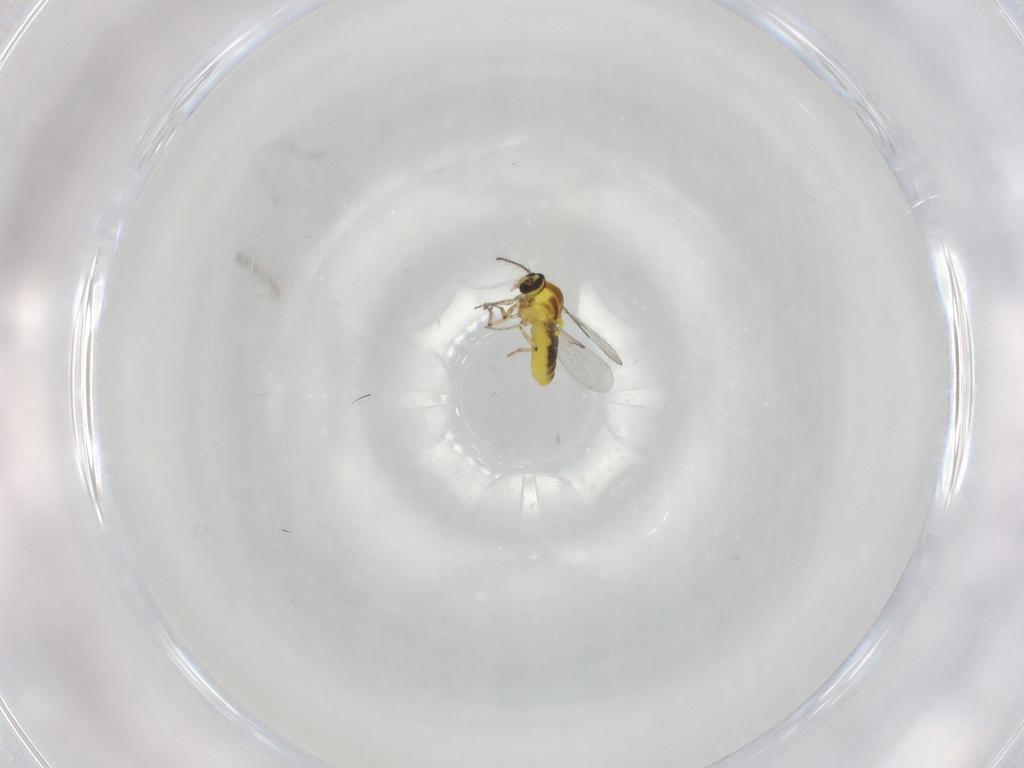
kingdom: Animalia
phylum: Arthropoda
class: Insecta
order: Diptera
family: Ceratopogonidae
